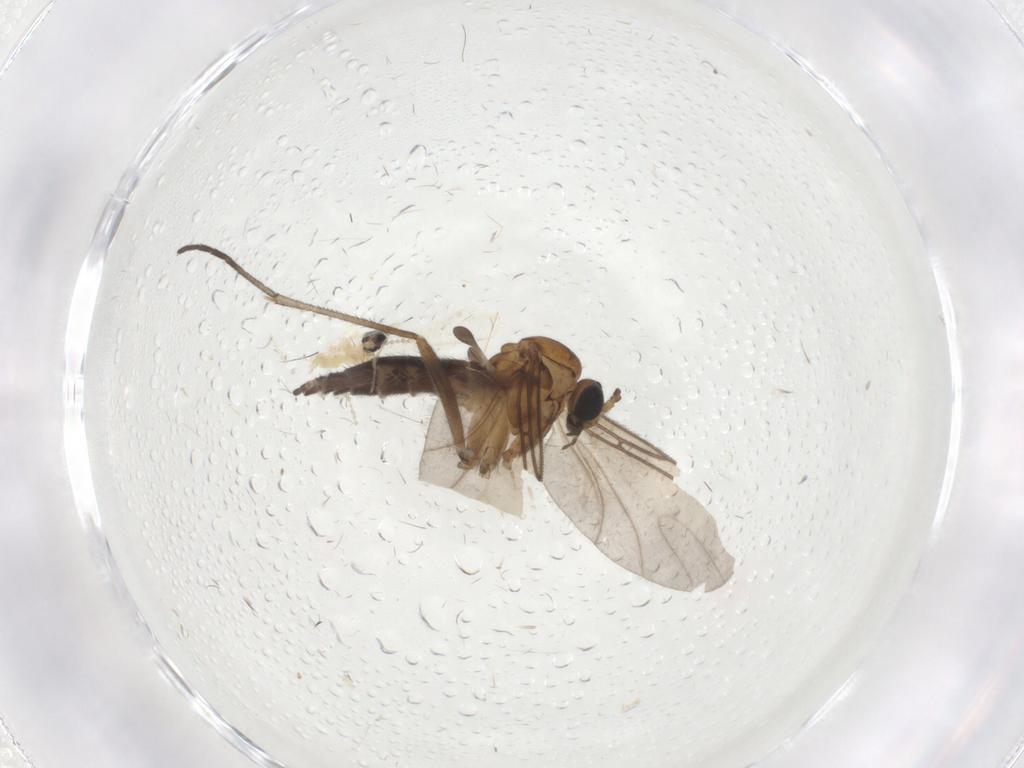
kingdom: Animalia
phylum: Arthropoda
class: Insecta
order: Diptera
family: Cecidomyiidae
